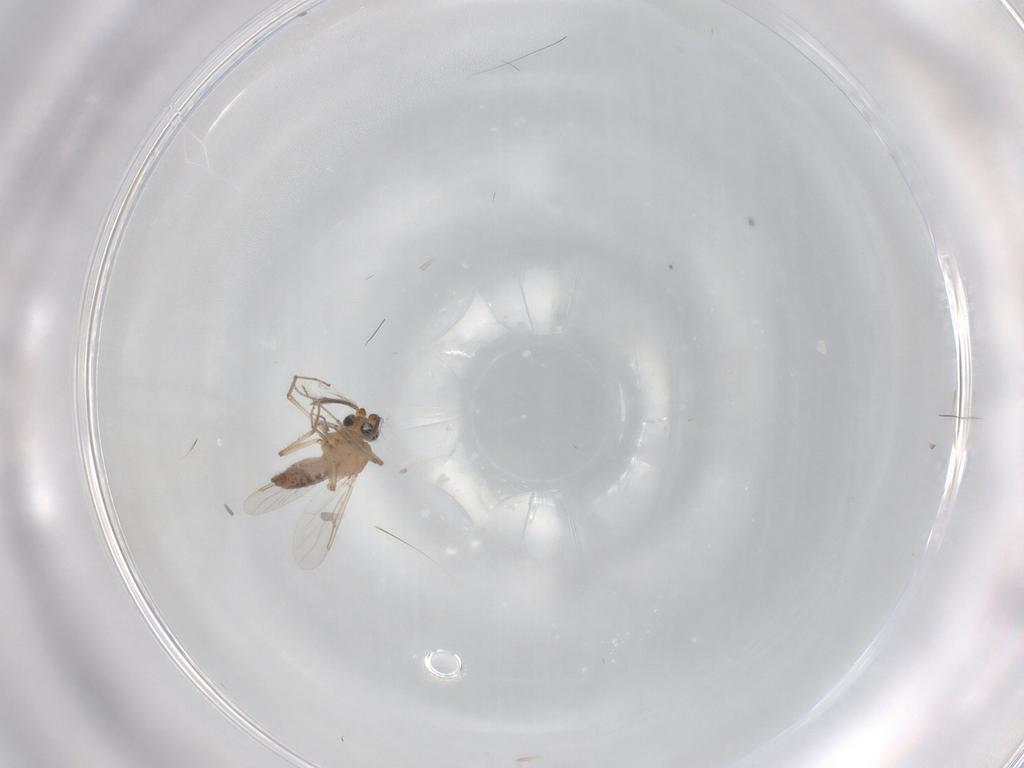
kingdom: Animalia
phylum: Arthropoda
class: Insecta
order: Diptera
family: Ceratopogonidae
